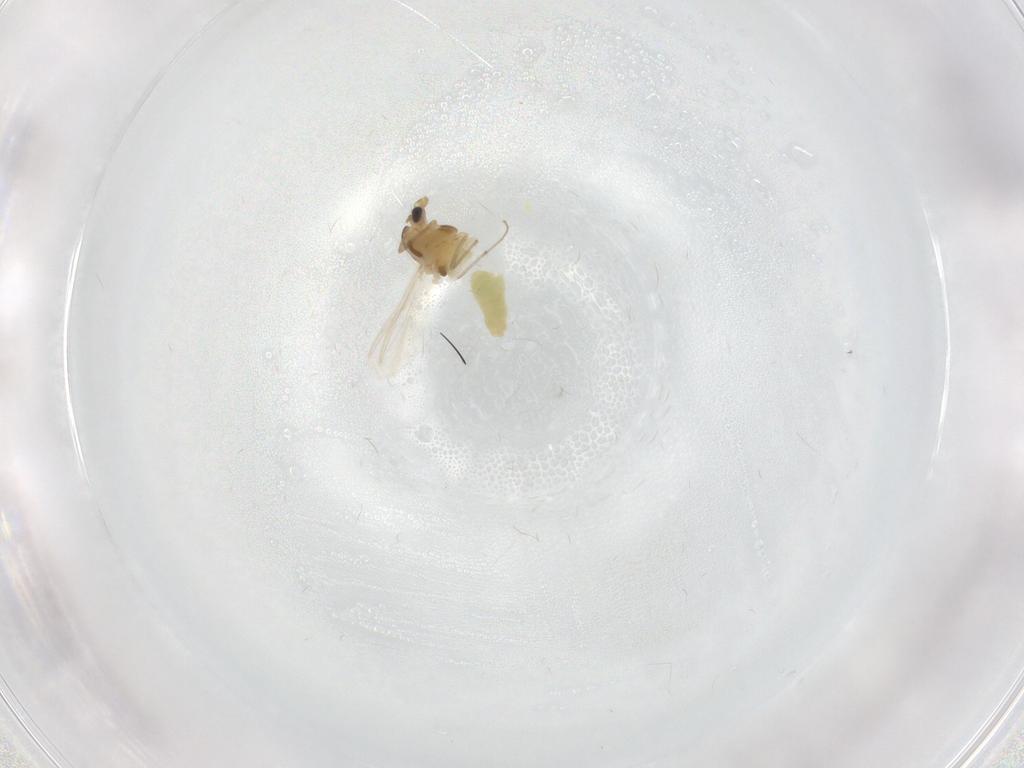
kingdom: Animalia
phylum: Arthropoda
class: Insecta
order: Diptera
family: Chironomidae
